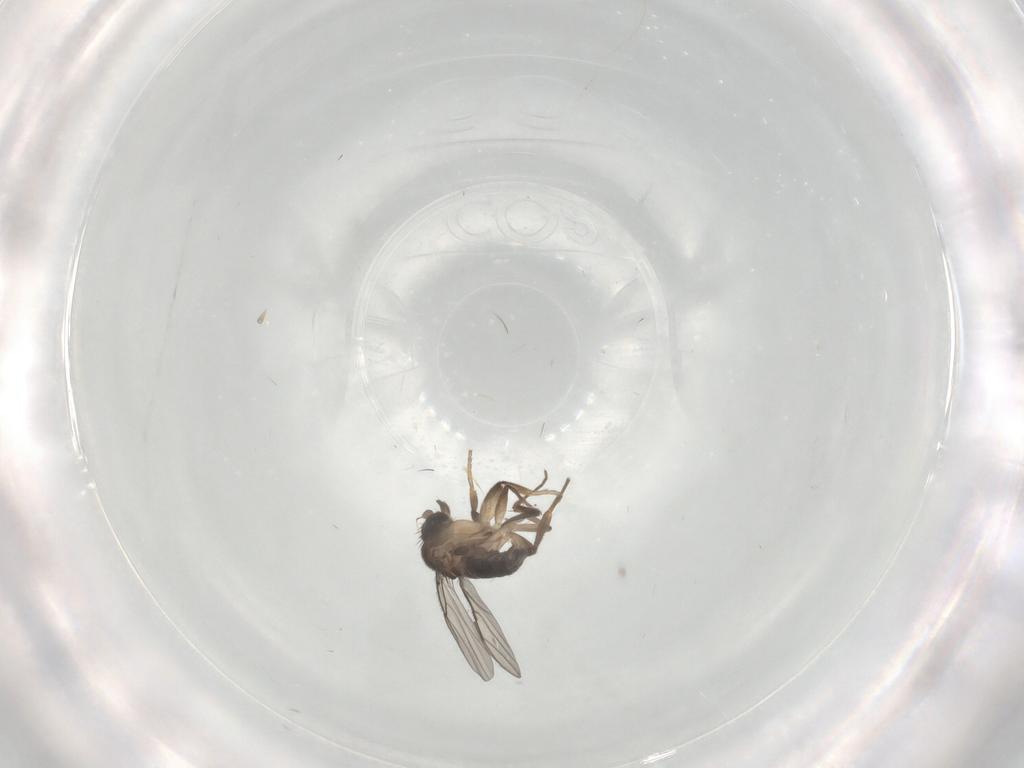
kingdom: Animalia
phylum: Arthropoda
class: Insecta
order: Diptera
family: Phoridae
